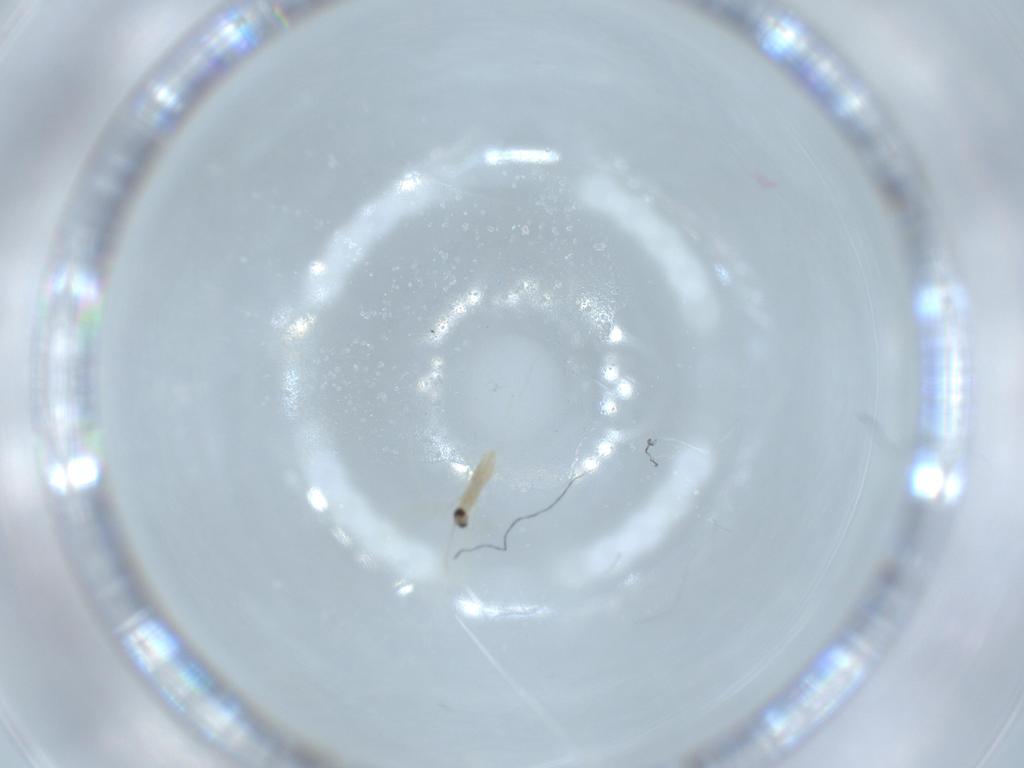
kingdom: Animalia
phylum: Arthropoda
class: Insecta
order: Diptera
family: Cecidomyiidae
